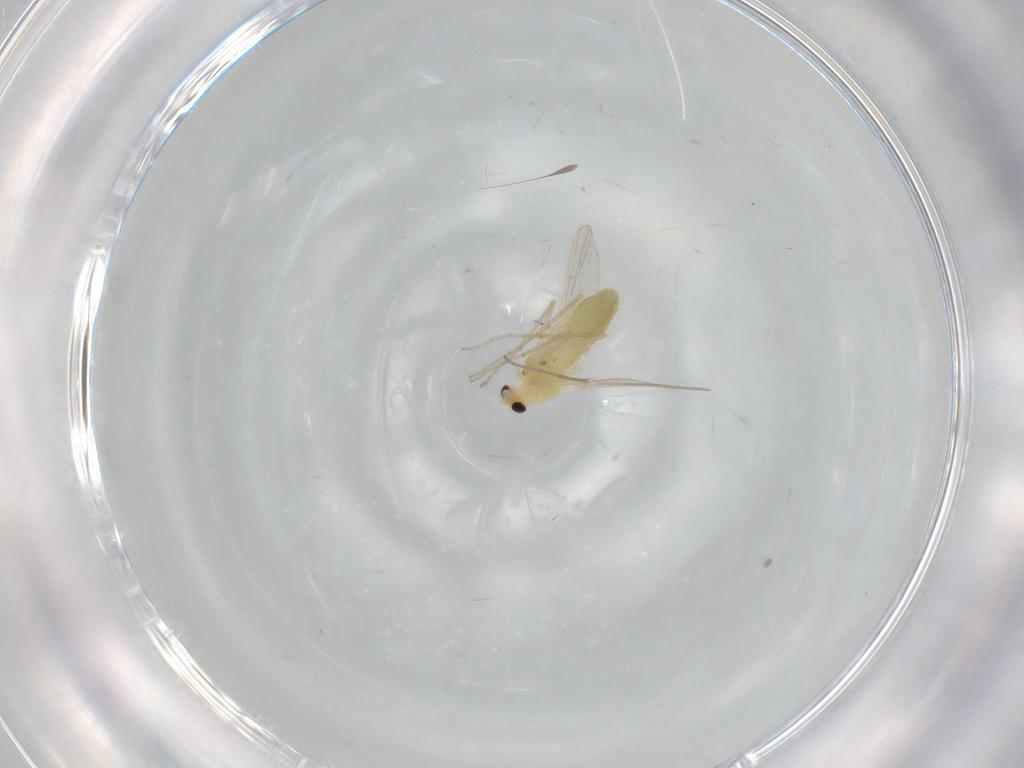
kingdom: Animalia
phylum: Arthropoda
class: Insecta
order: Diptera
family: Chironomidae
